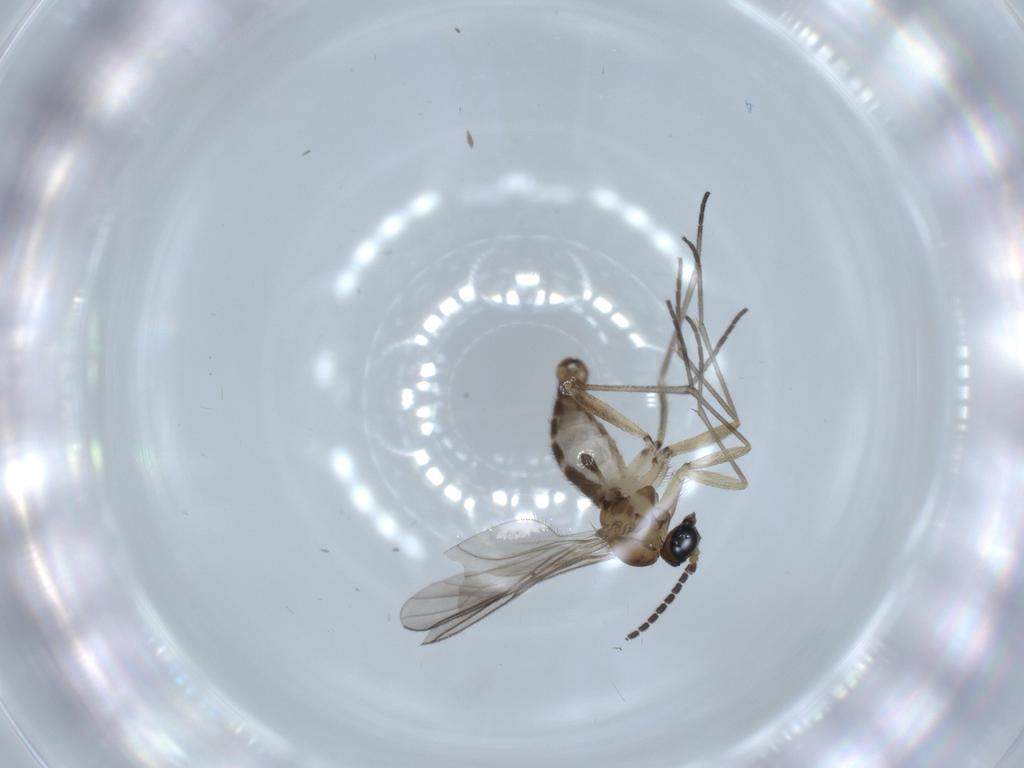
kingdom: Animalia
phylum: Arthropoda
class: Insecta
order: Diptera
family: Sciaridae
